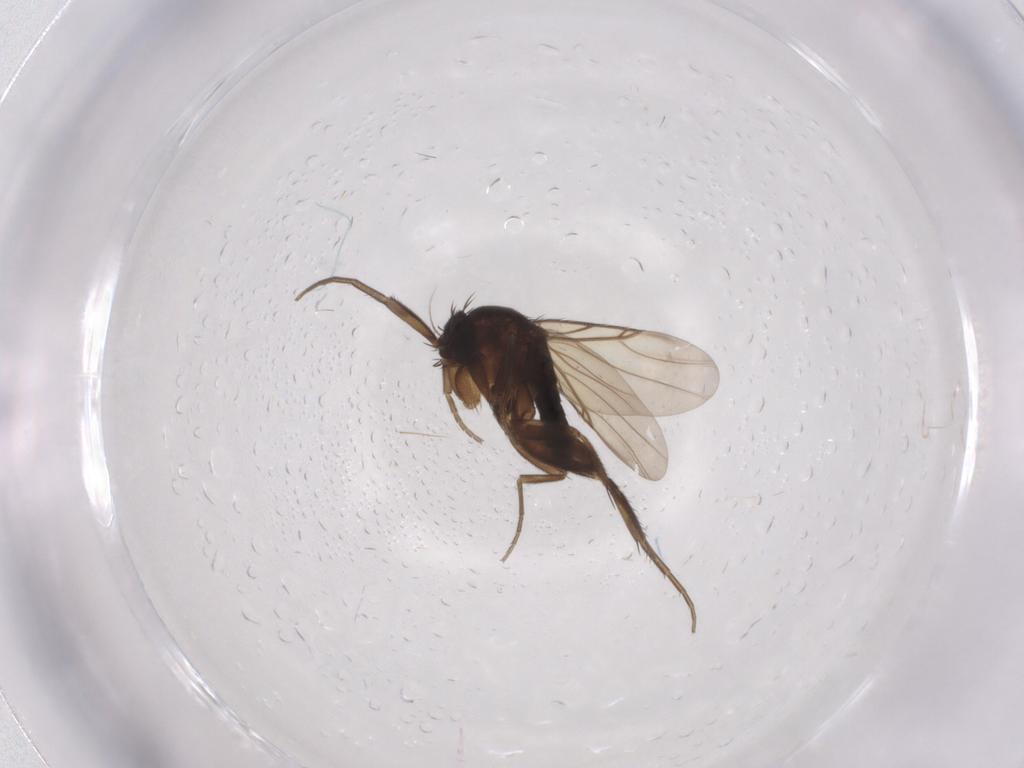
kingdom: Animalia
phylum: Arthropoda
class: Insecta
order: Diptera
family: Phoridae
